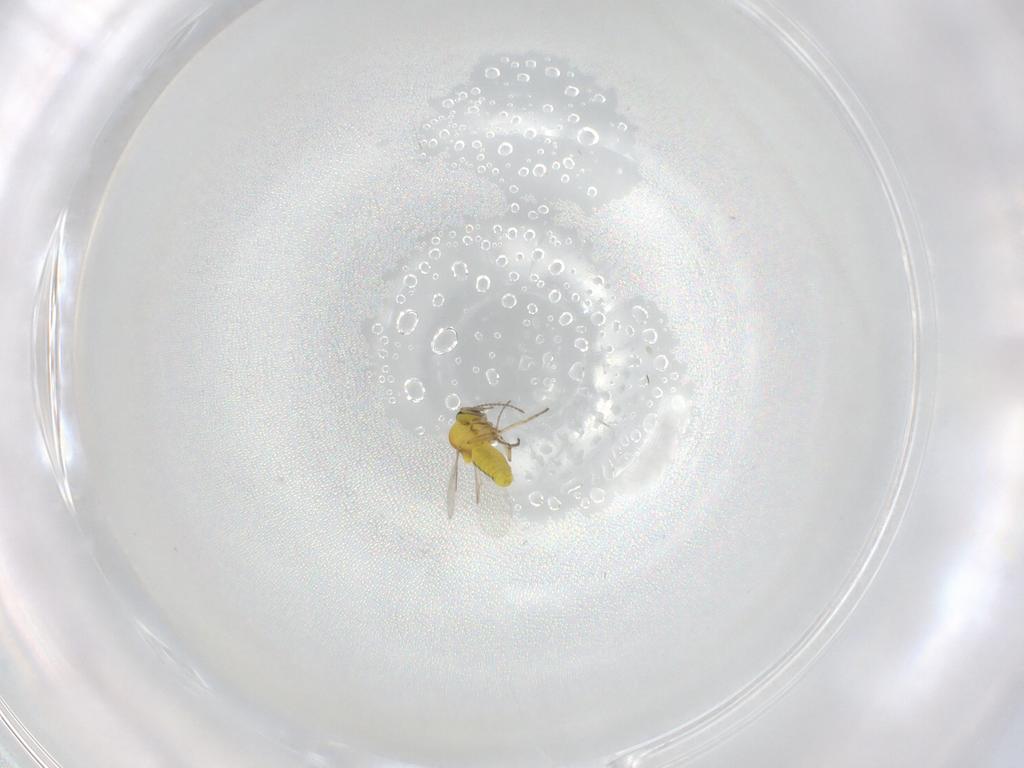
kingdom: Animalia
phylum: Arthropoda
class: Insecta
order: Diptera
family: Ceratopogonidae
